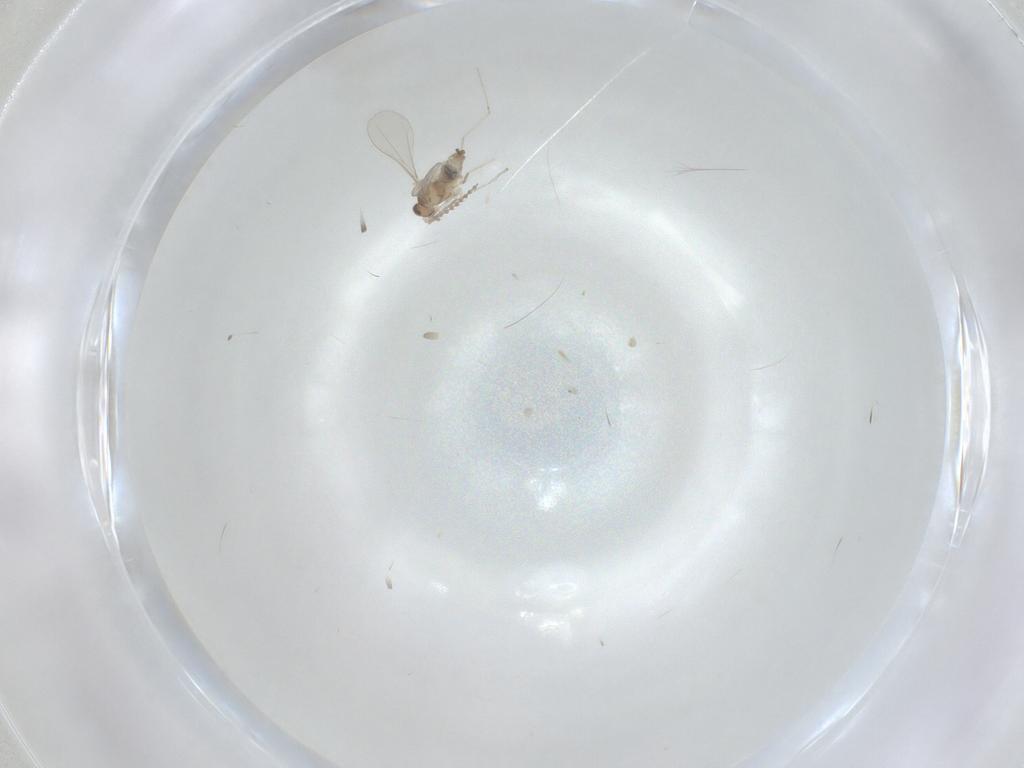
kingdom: Animalia
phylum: Arthropoda
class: Insecta
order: Diptera
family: Cecidomyiidae
